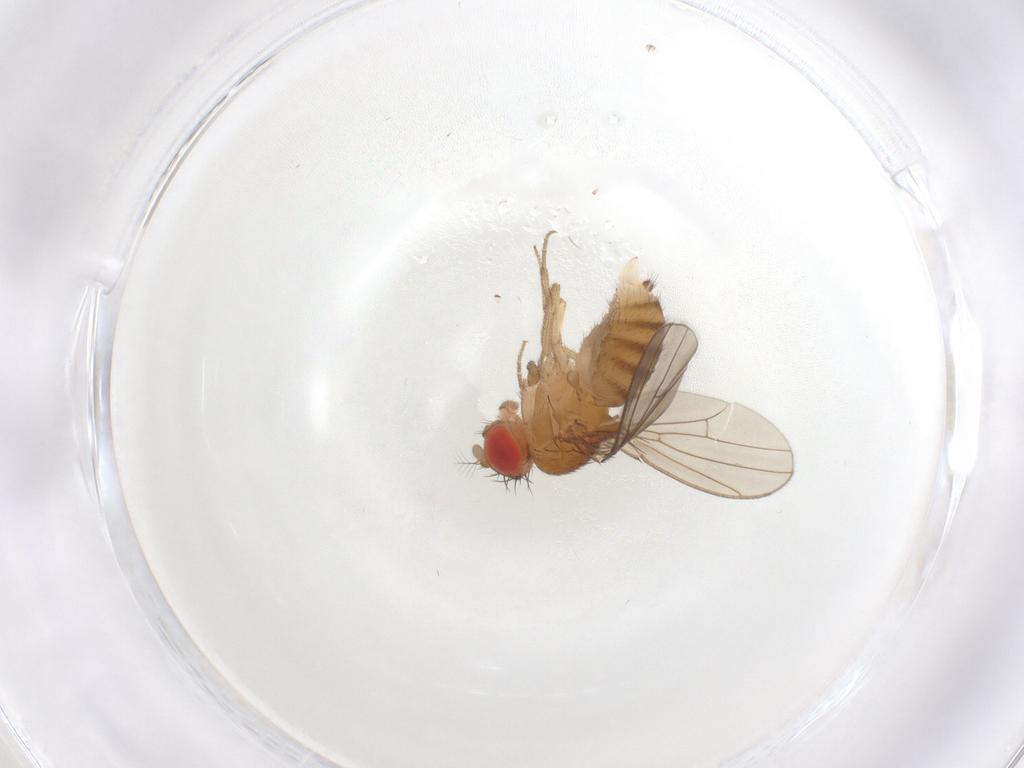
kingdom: Animalia
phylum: Arthropoda
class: Insecta
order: Diptera
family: Drosophilidae
